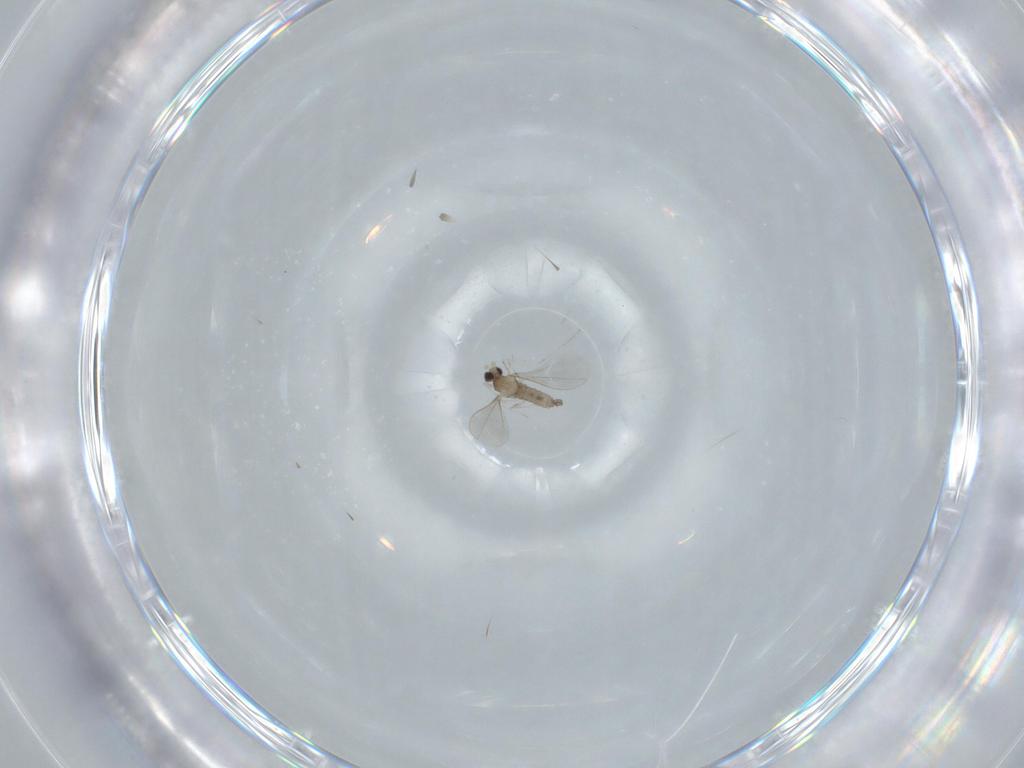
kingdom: Animalia
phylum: Arthropoda
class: Insecta
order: Diptera
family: Cecidomyiidae
